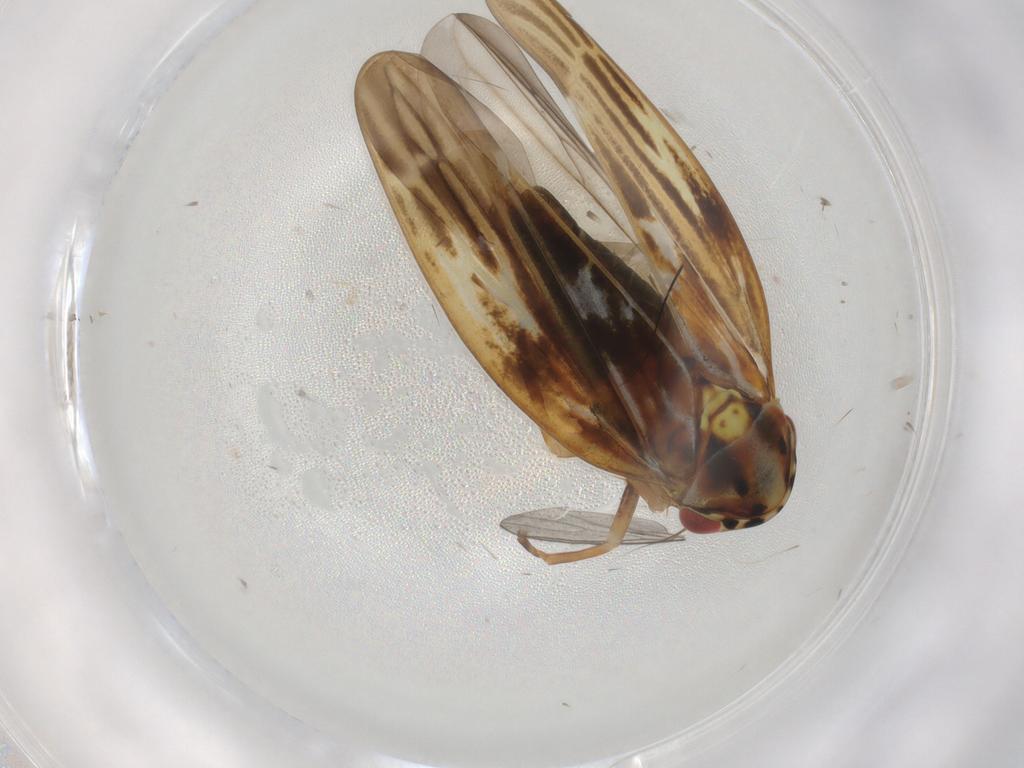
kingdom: Animalia
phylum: Arthropoda
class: Insecta
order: Hemiptera
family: Cicadellidae
